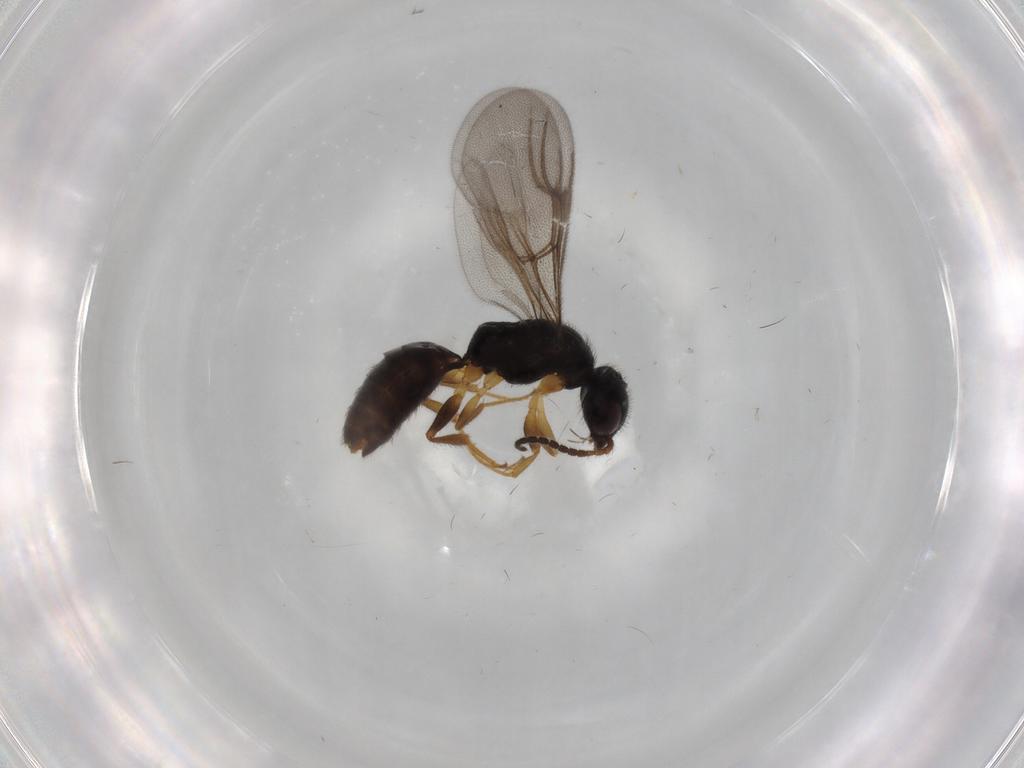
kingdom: Animalia
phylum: Arthropoda
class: Insecta
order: Hymenoptera
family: Bethylidae
